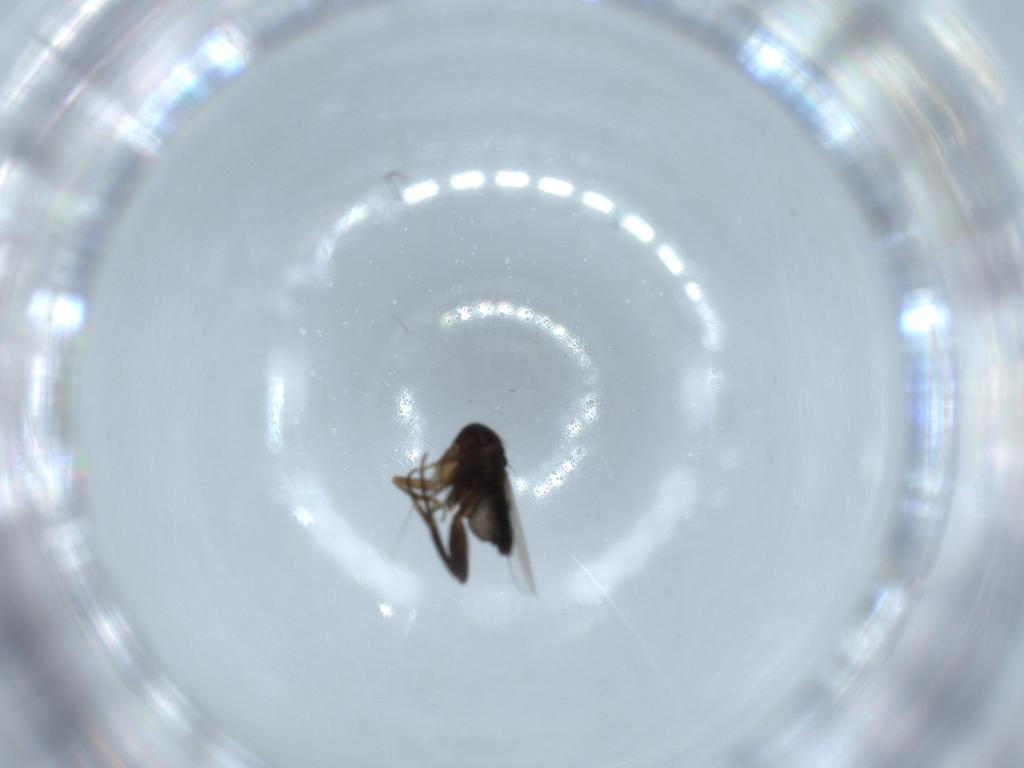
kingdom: Animalia
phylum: Arthropoda
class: Insecta
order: Diptera
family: Phoridae
